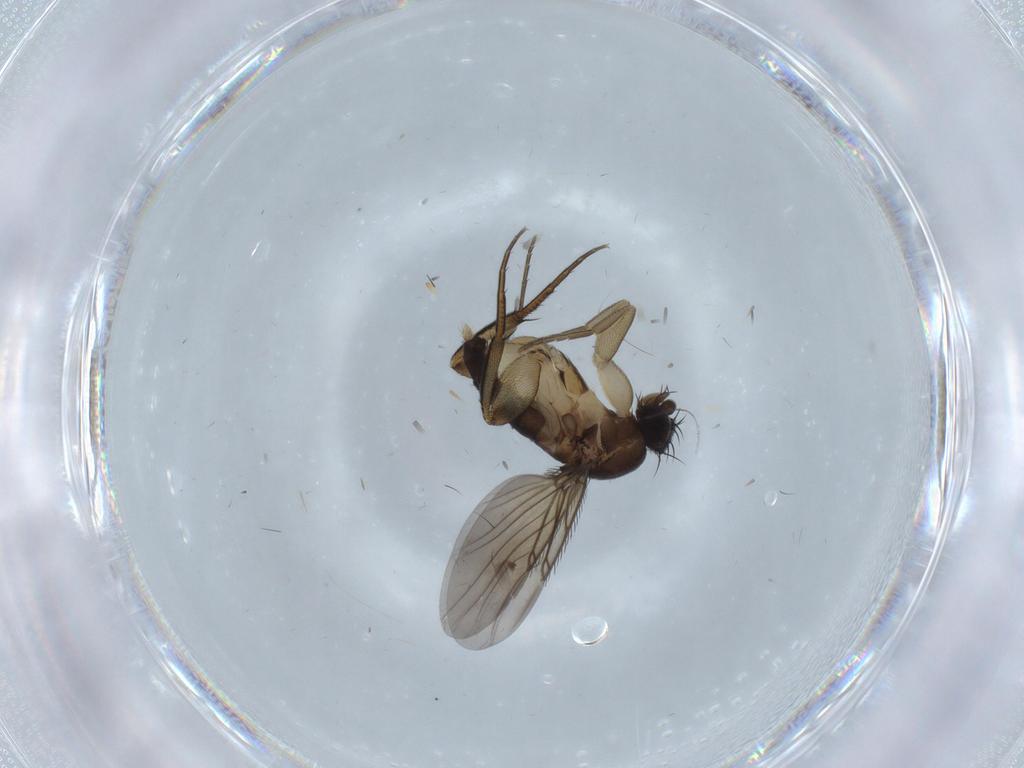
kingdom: Animalia
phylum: Arthropoda
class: Insecta
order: Diptera
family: Phoridae
